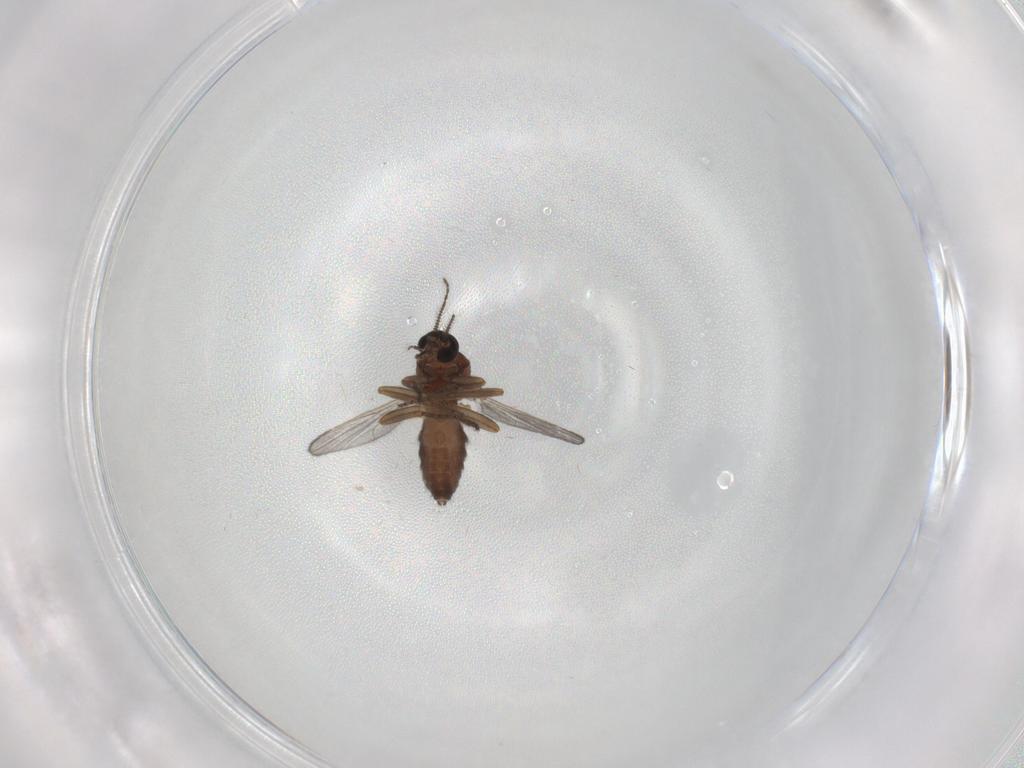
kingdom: Animalia
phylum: Arthropoda
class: Insecta
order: Diptera
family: Ceratopogonidae
